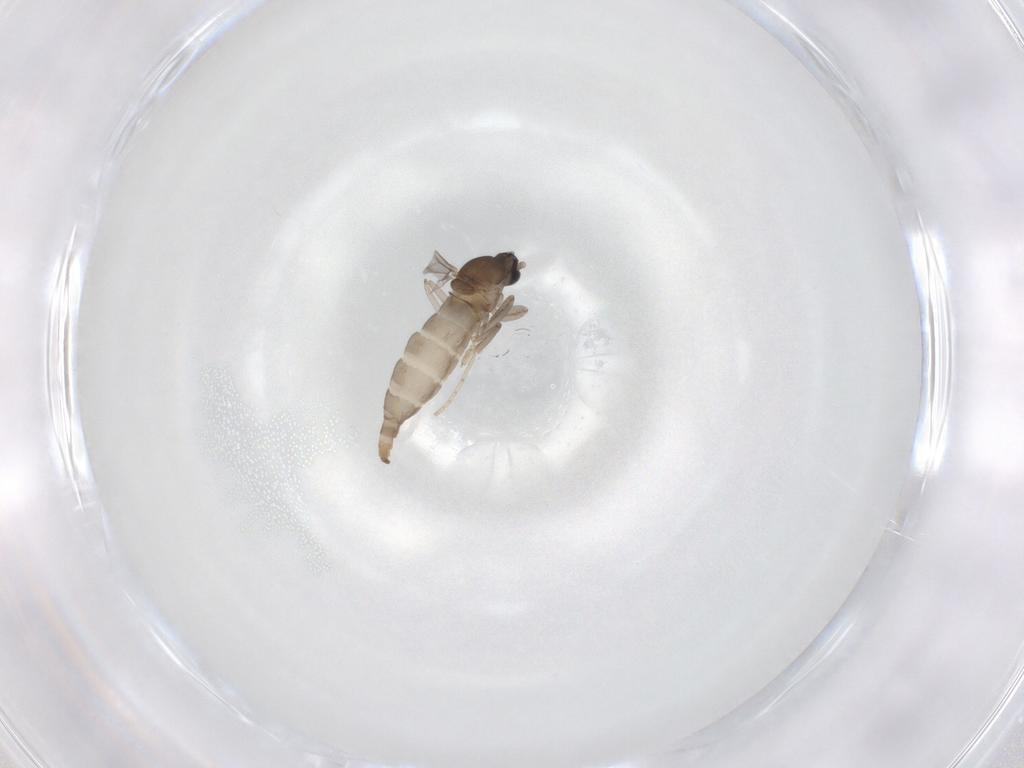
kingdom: Animalia
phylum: Arthropoda
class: Insecta
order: Diptera
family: Cecidomyiidae
